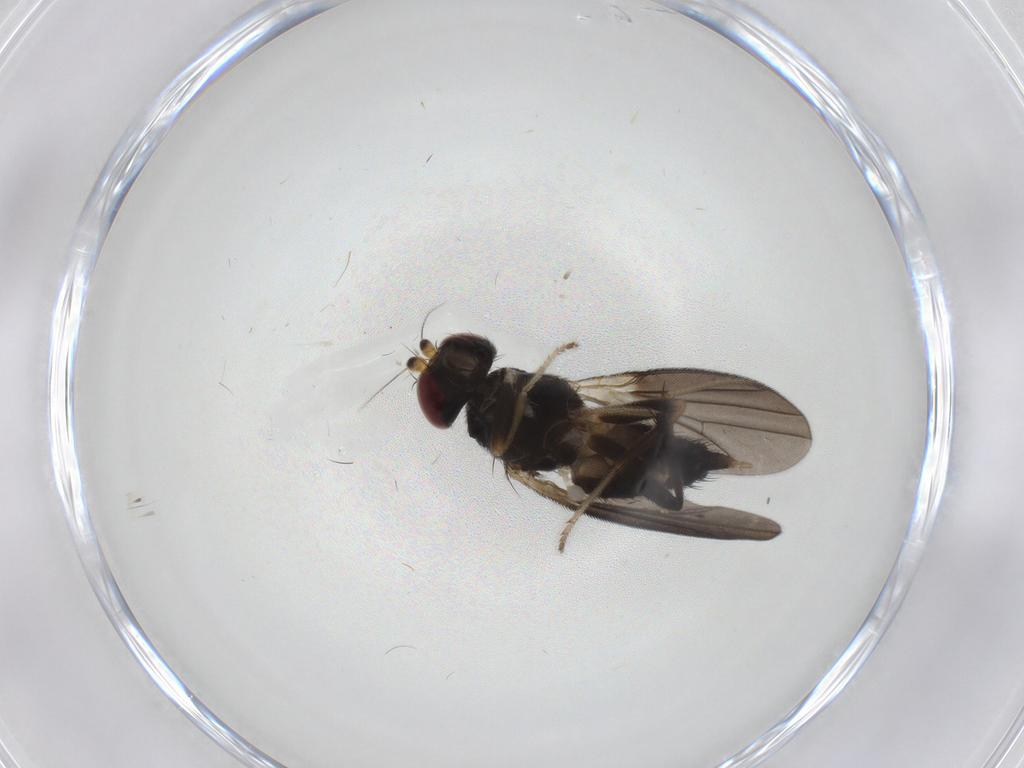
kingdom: Animalia
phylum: Arthropoda
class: Insecta
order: Diptera
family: Clusiidae
